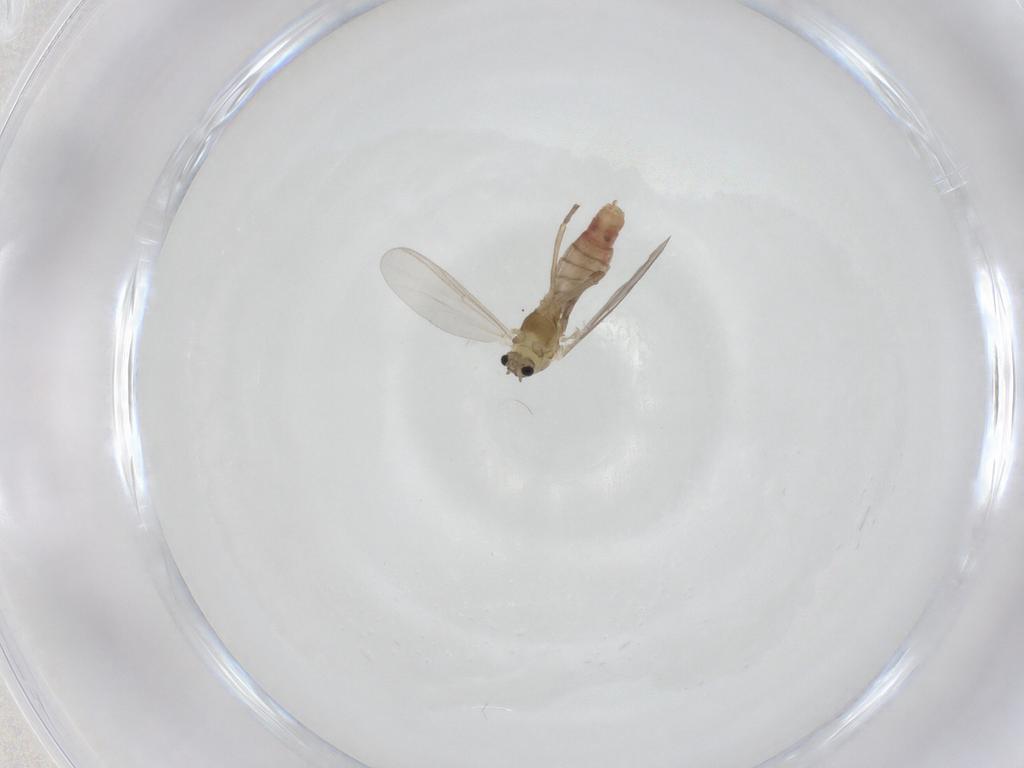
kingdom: Animalia
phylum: Arthropoda
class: Insecta
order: Diptera
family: Chironomidae
